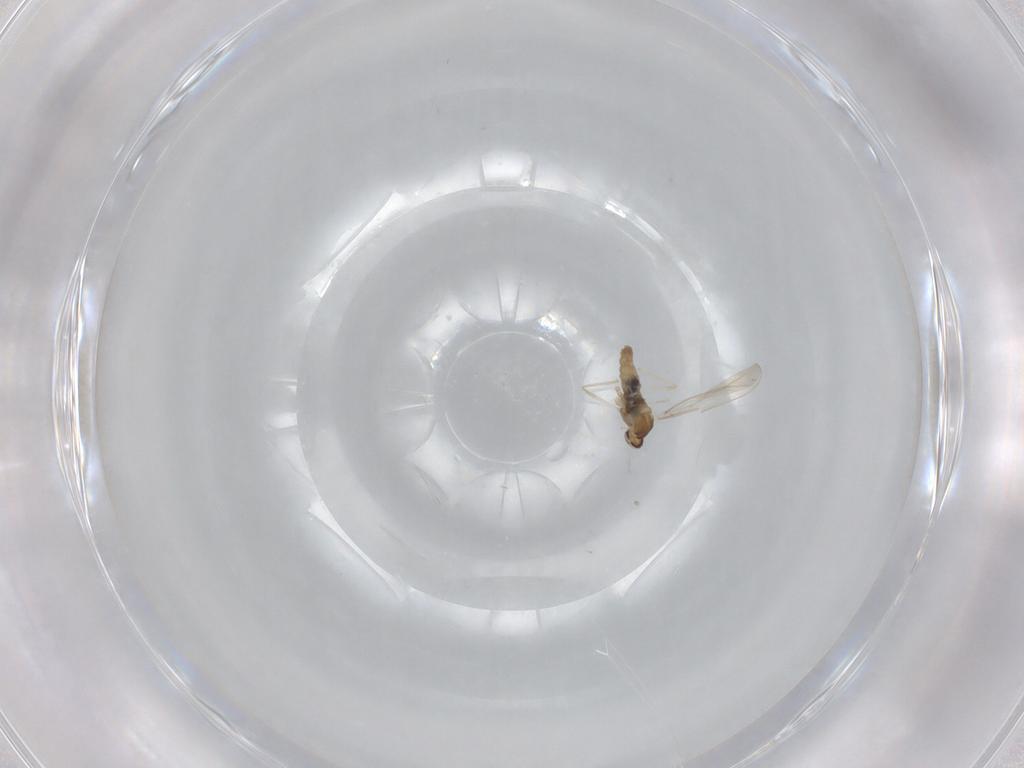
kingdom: Animalia
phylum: Arthropoda
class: Insecta
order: Diptera
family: Cecidomyiidae
